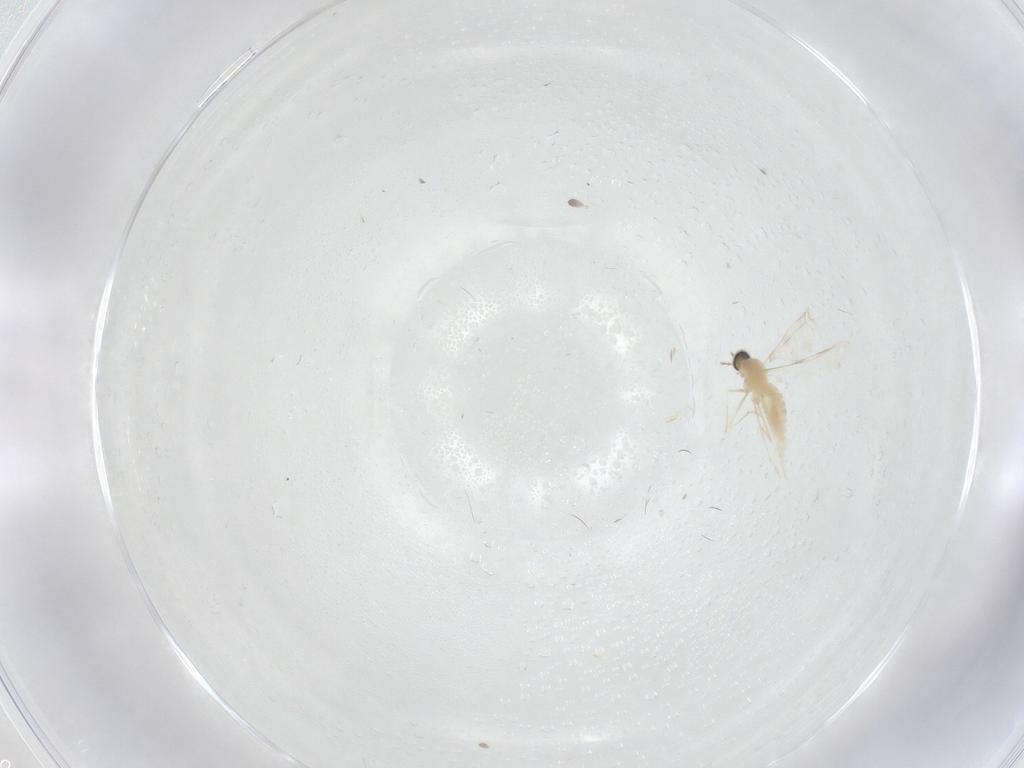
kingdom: Animalia
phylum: Arthropoda
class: Insecta
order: Diptera
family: Chironomidae
